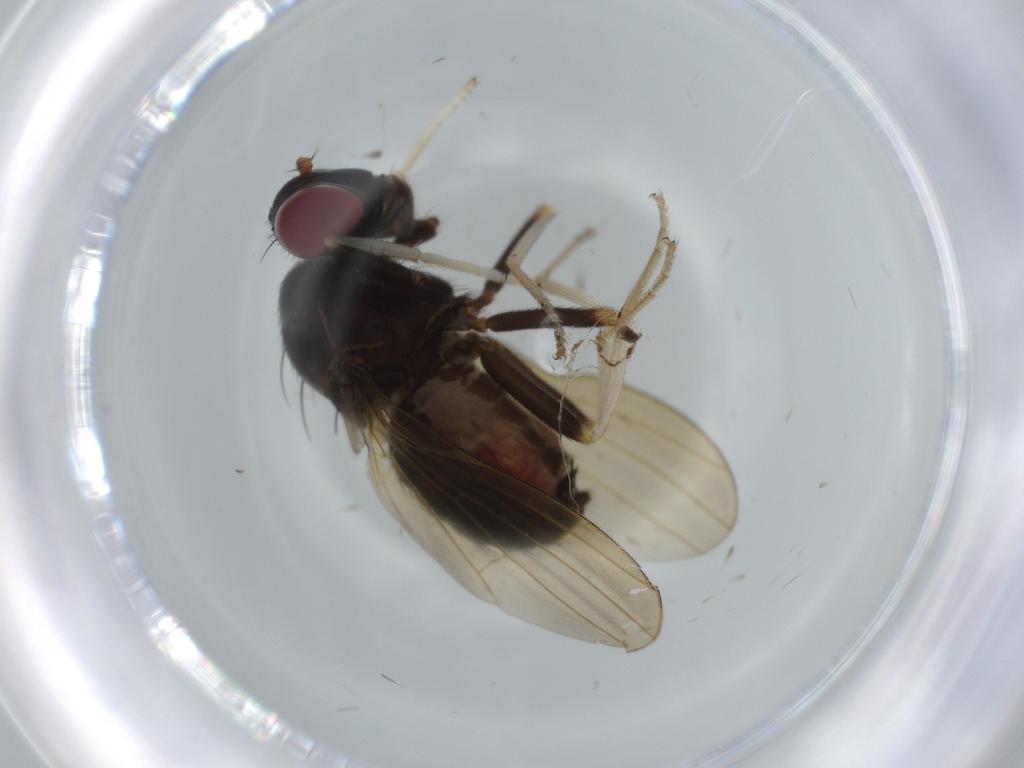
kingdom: Animalia
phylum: Arthropoda
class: Insecta
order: Diptera
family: Lauxaniidae
